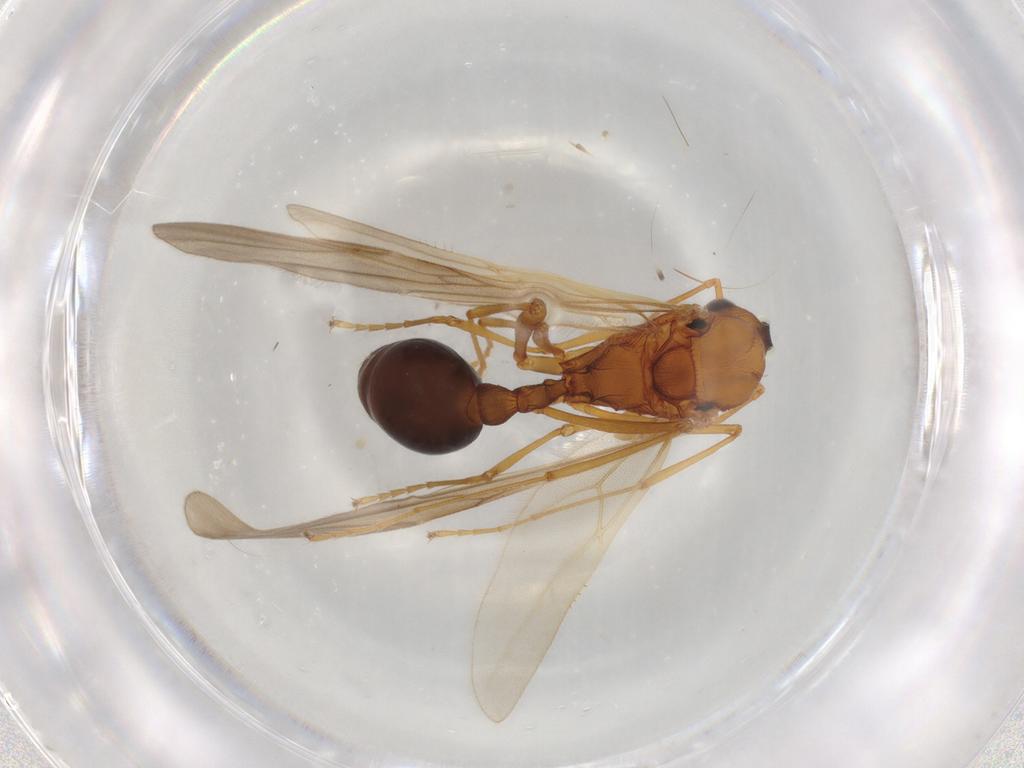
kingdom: Animalia
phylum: Arthropoda
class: Insecta
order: Hymenoptera
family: Formicidae
